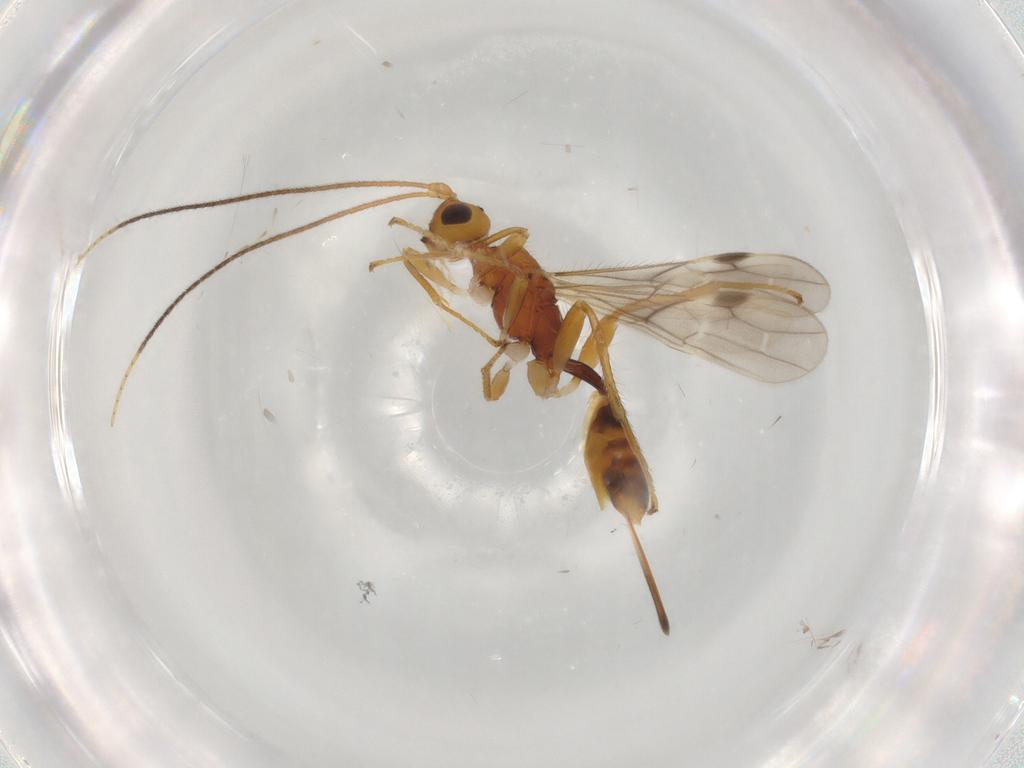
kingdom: Animalia
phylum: Arthropoda
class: Insecta
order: Hymenoptera
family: Braconidae
